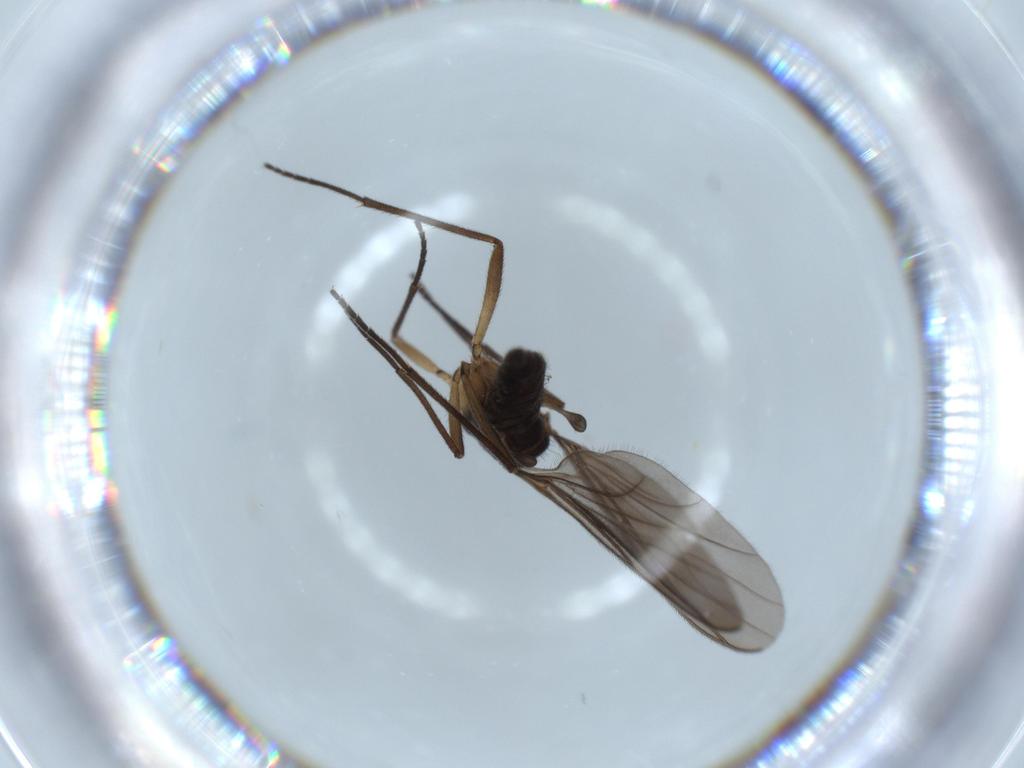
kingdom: Animalia
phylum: Arthropoda
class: Insecta
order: Diptera
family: Sciaridae
